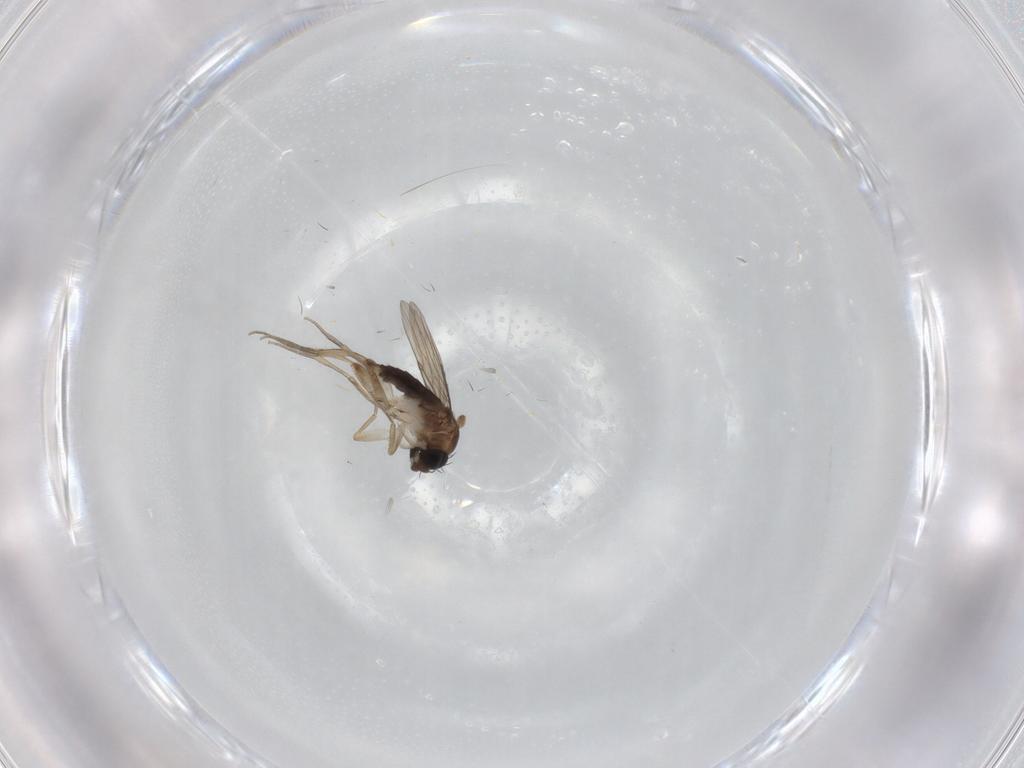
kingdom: Animalia
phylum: Arthropoda
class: Insecta
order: Diptera
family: Phoridae
